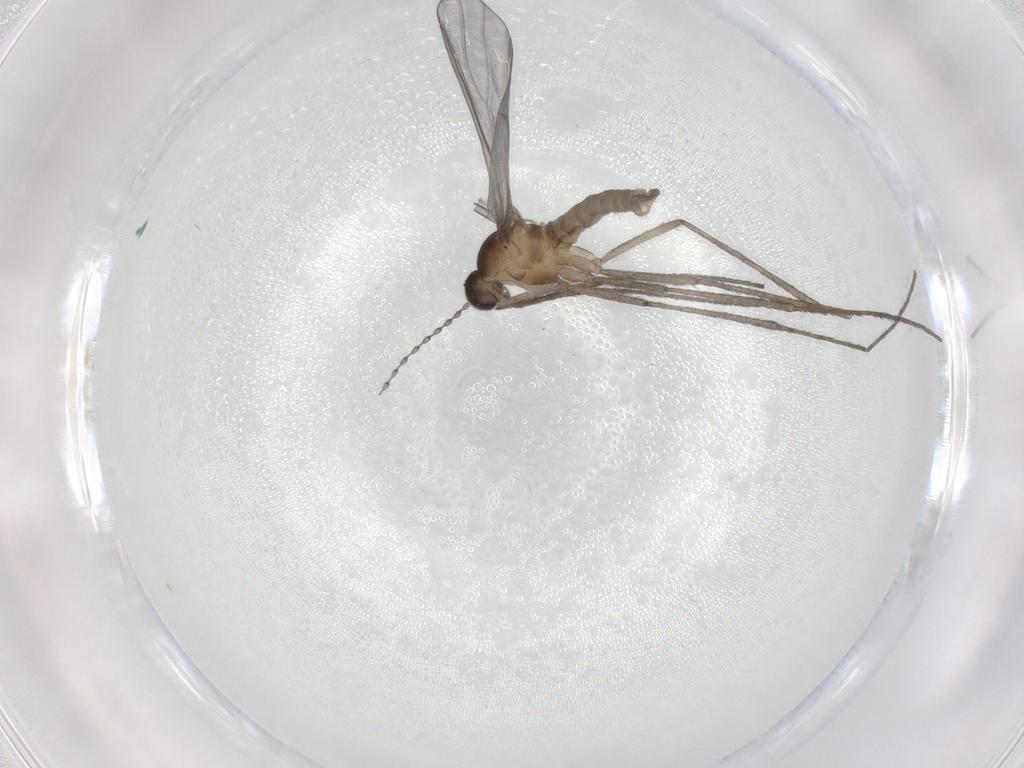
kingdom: Animalia
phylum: Arthropoda
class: Insecta
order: Diptera
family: Cecidomyiidae
